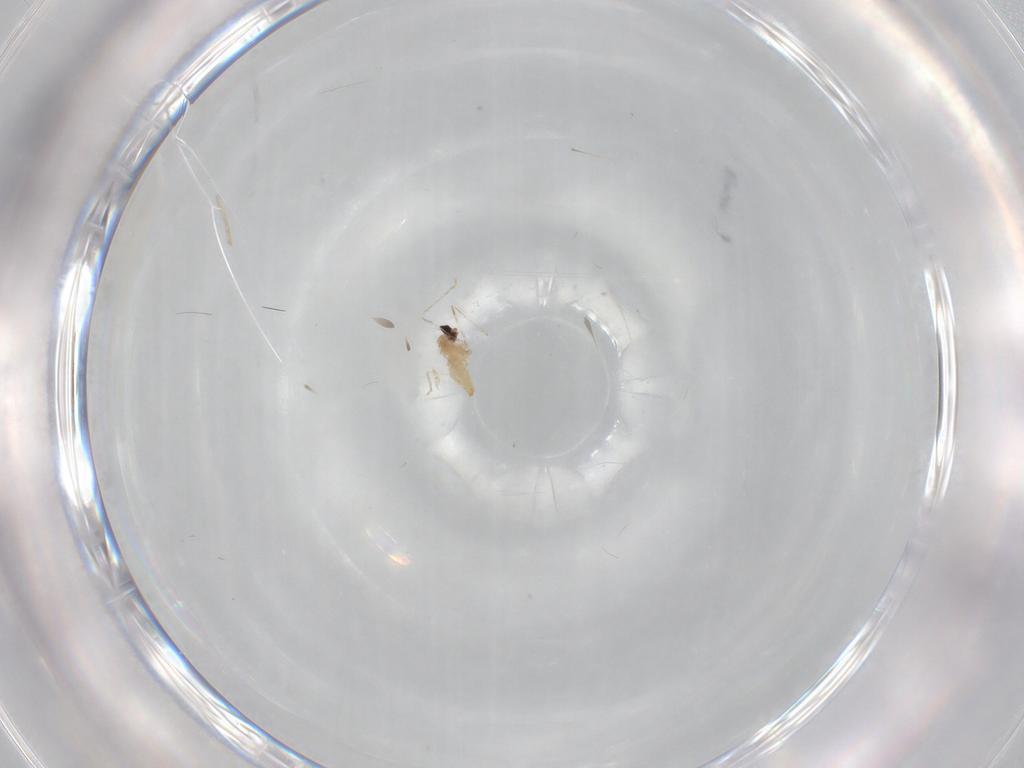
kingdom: Animalia
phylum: Arthropoda
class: Insecta
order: Diptera
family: Cecidomyiidae
